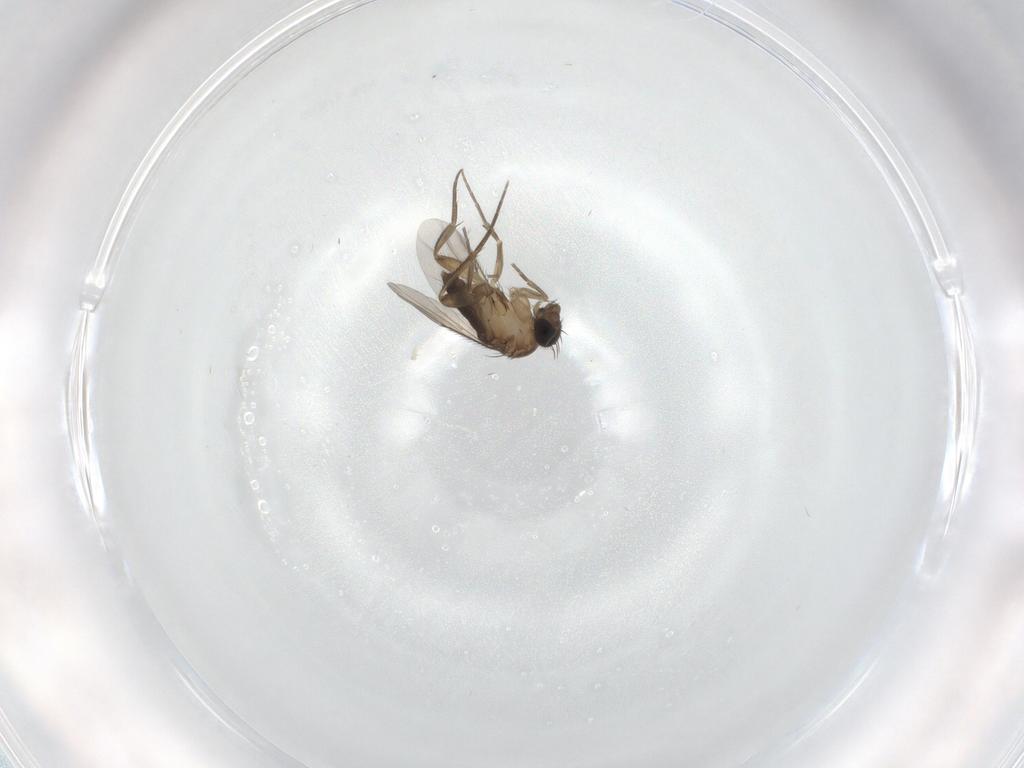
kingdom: Animalia
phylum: Arthropoda
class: Insecta
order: Diptera
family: Phoridae
